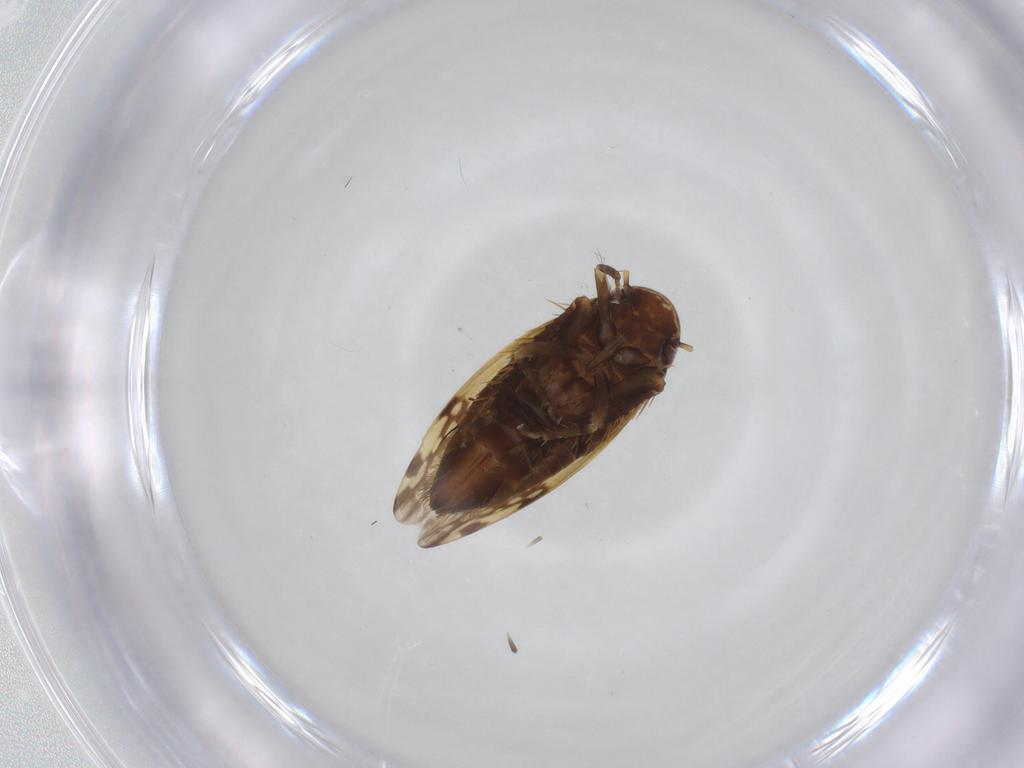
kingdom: Animalia
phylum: Arthropoda
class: Insecta
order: Hemiptera
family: Cicadellidae
